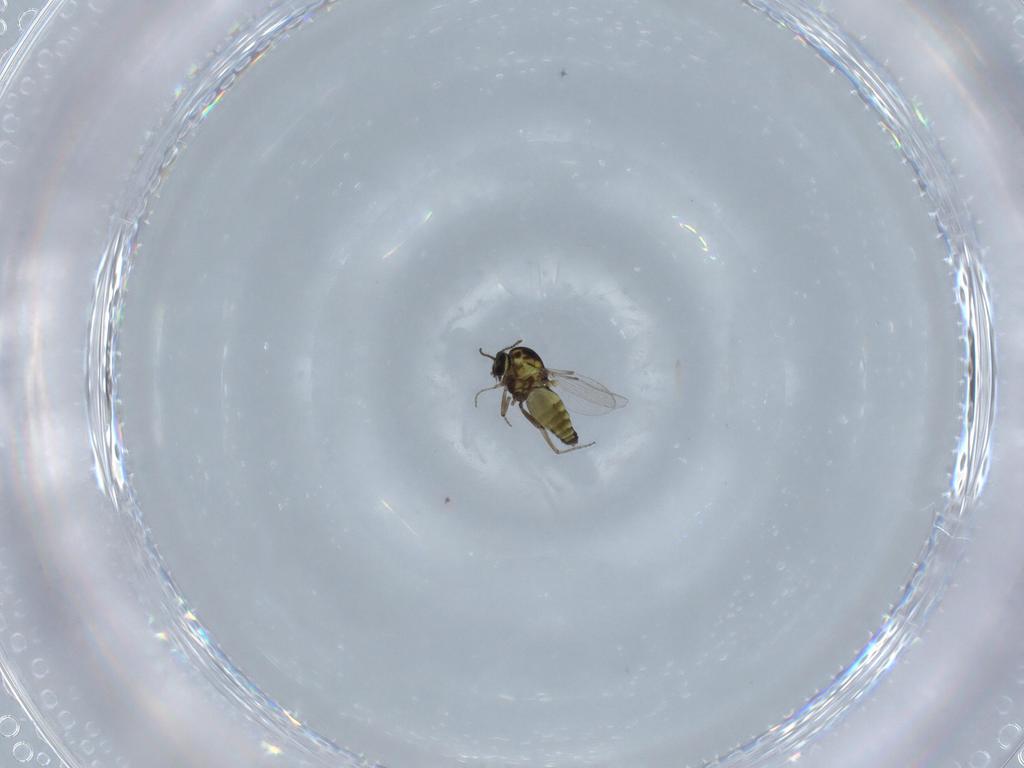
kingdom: Animalia
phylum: Arthropoda
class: Insecta
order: Diptera
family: Ceratopogonidae
